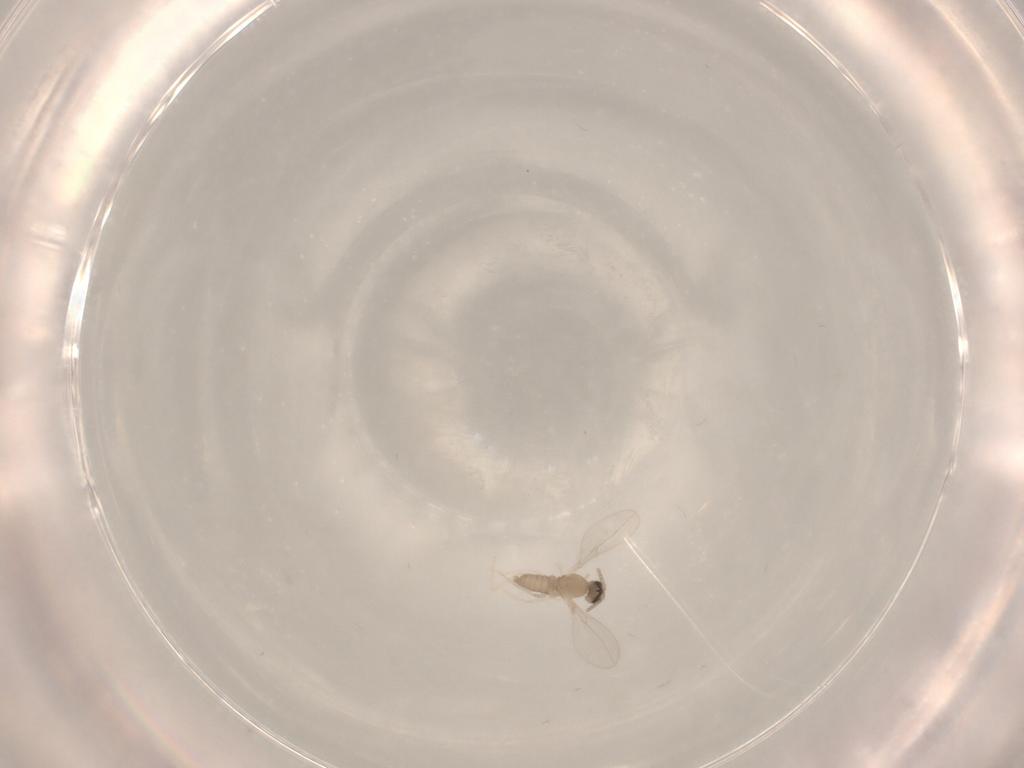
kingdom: Animalia
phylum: Arthropoda
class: Insecta
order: Diptera
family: Cecidomyiidae
